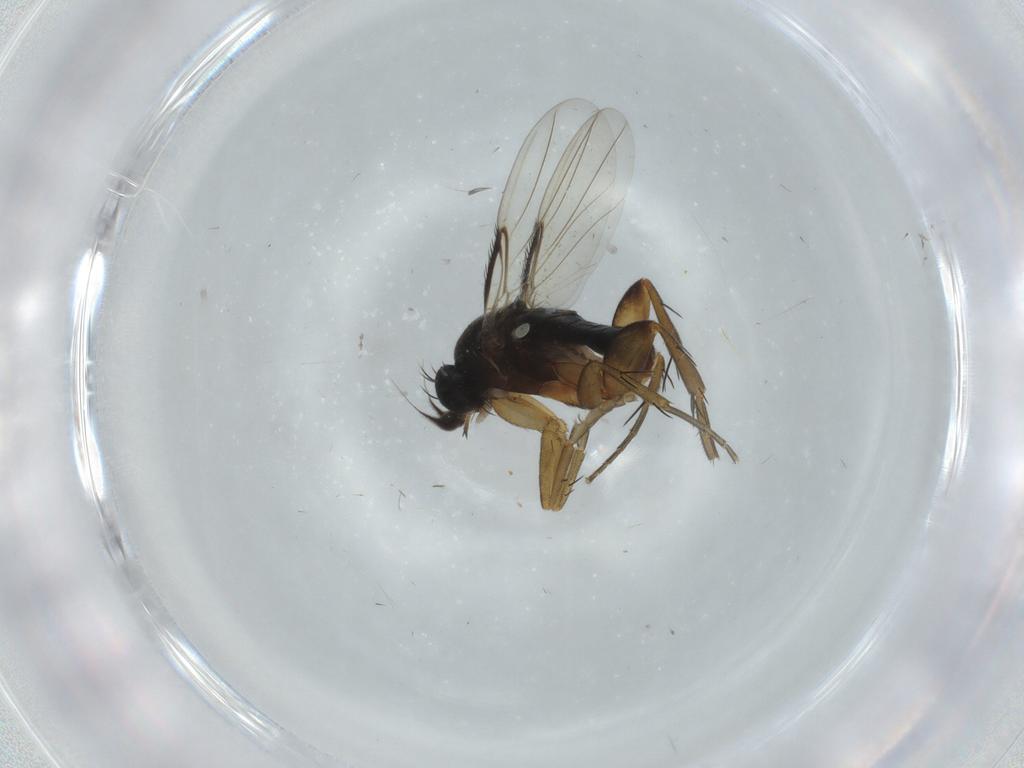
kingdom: Animalia
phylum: Arthropoda
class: Insecta
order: Diptera
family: Phoridae
